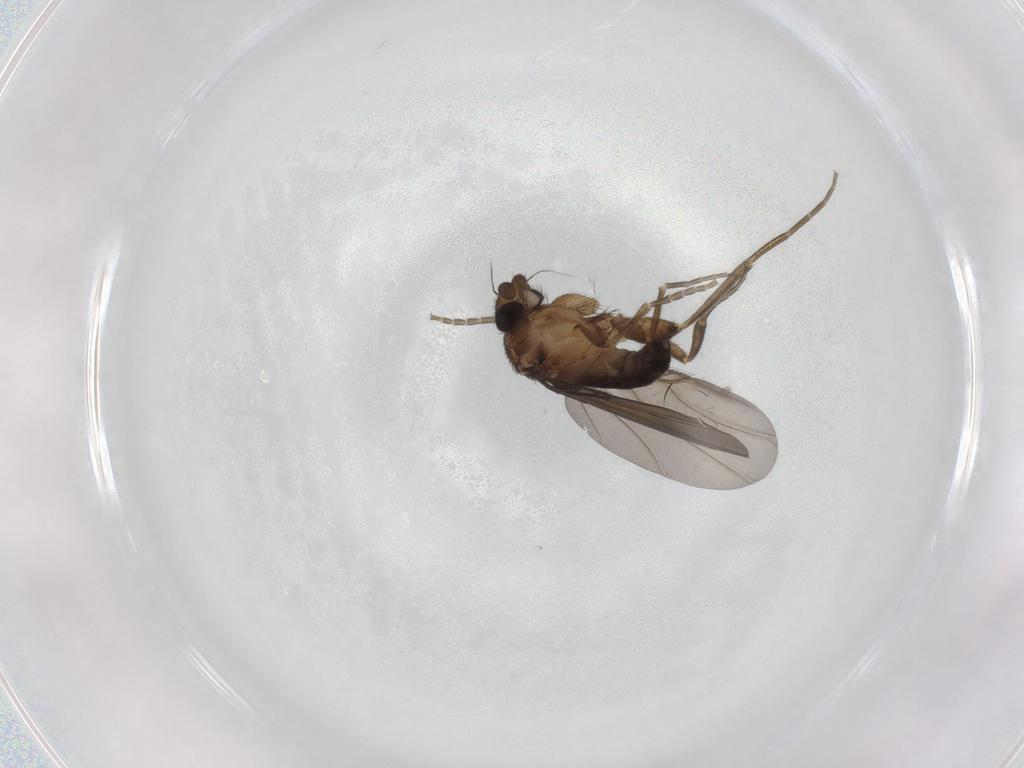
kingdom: Animalia
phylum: Arthropoda
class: Insecta
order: Diptera
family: Phoridae
